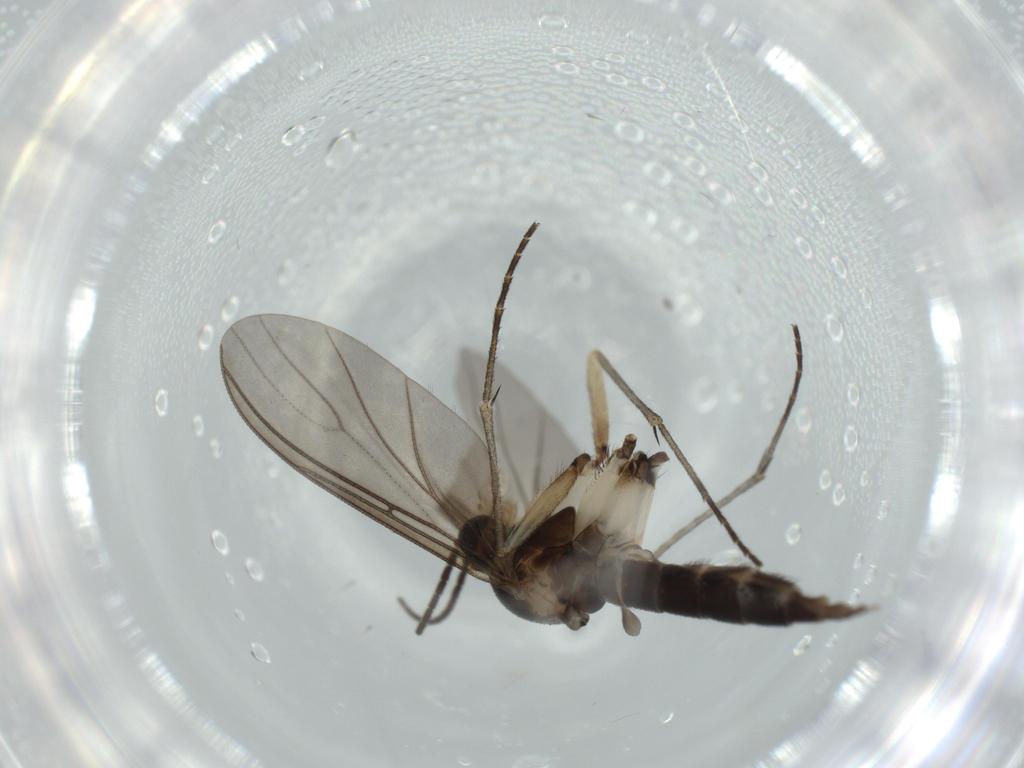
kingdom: Animalia
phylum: Arthropoda
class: Insecta
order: Diptera
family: Sciaridae
